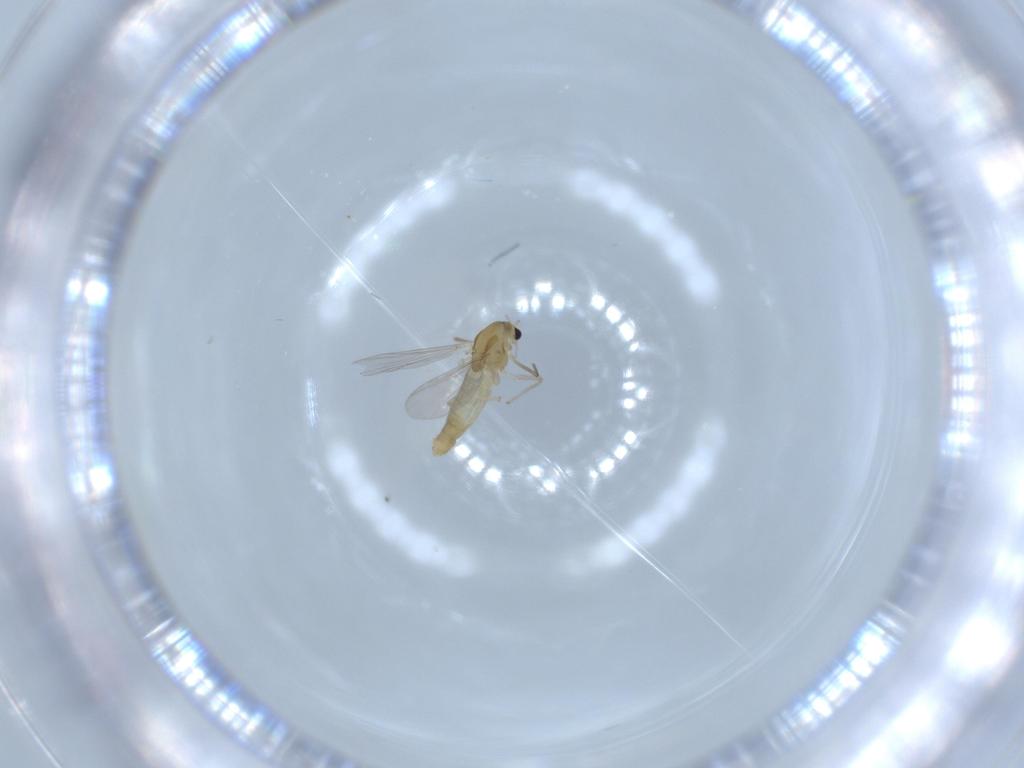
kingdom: Animalia
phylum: Arthropoda
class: Insecta
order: Diptera
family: Chironomidae
